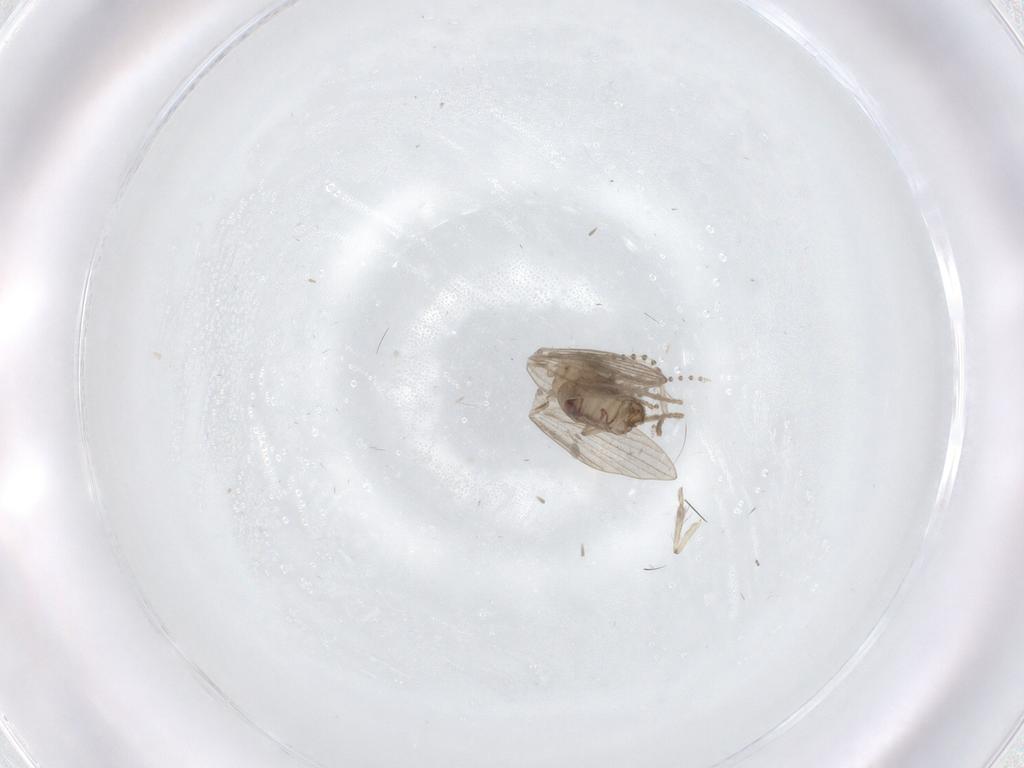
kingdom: Animalia
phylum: Arthropoda
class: Insecta
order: Diptera
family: Psychodidae
